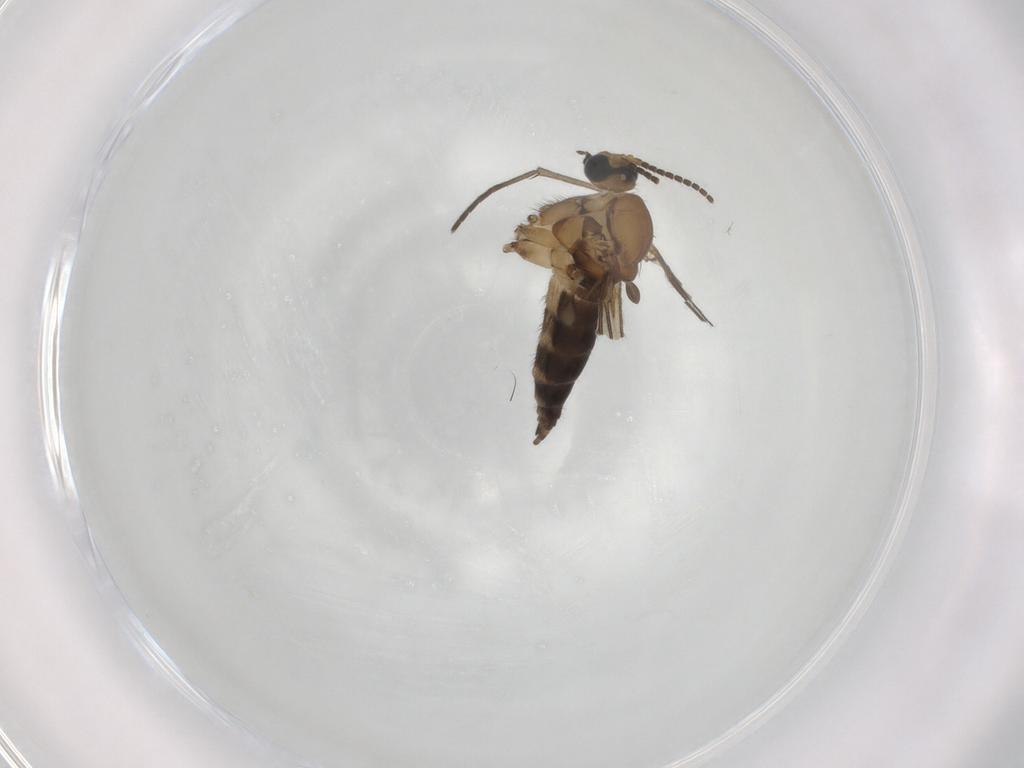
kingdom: Animalia
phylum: Arthropoda
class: Insecta
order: Diptera
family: Sciaridae
